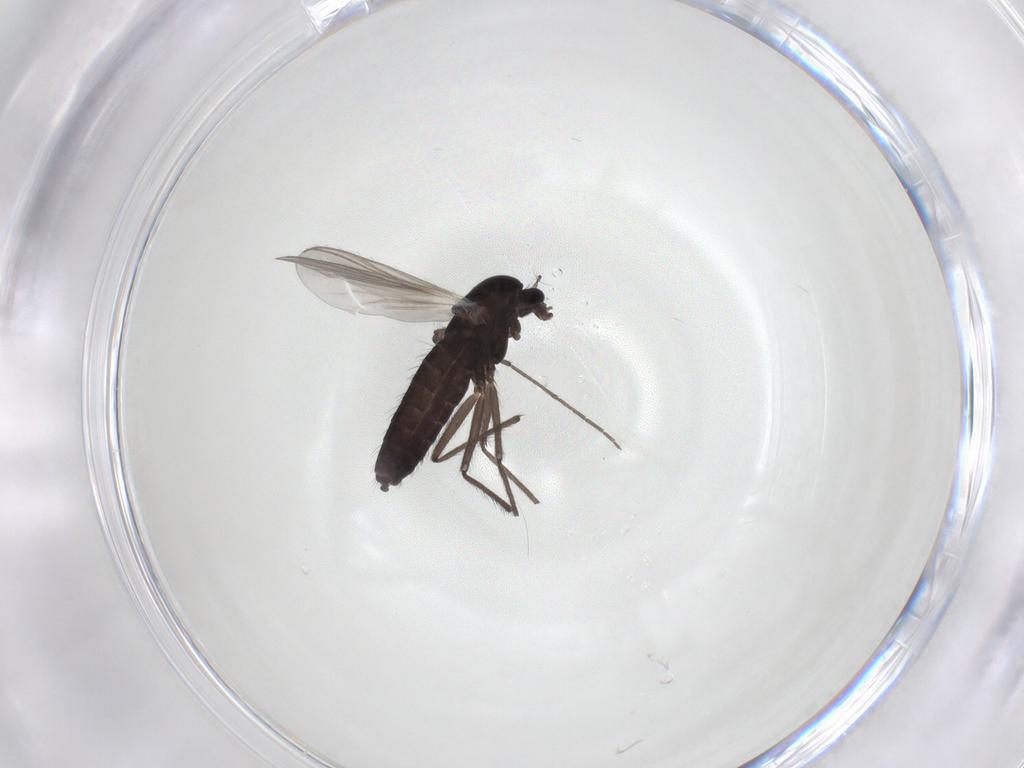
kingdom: Animalia
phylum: Arthropoda
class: Insecta
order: Diptera
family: Chironomidae
